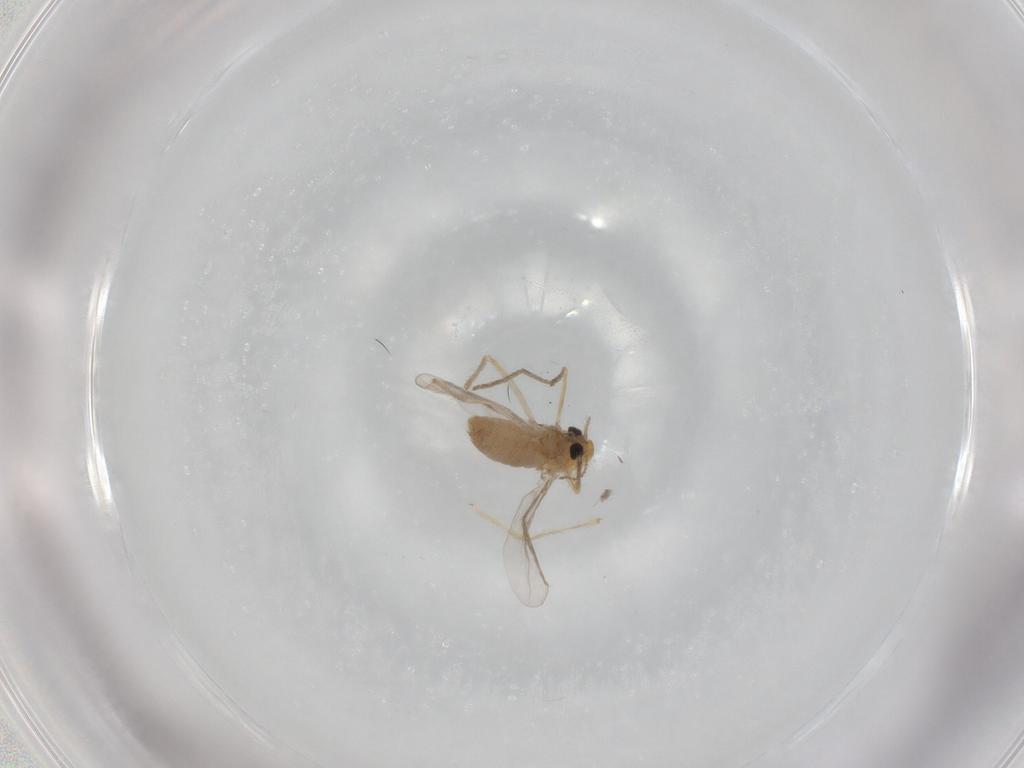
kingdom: Animalia
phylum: Arthropoda
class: Insecta
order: Diptera
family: Chironomidae
